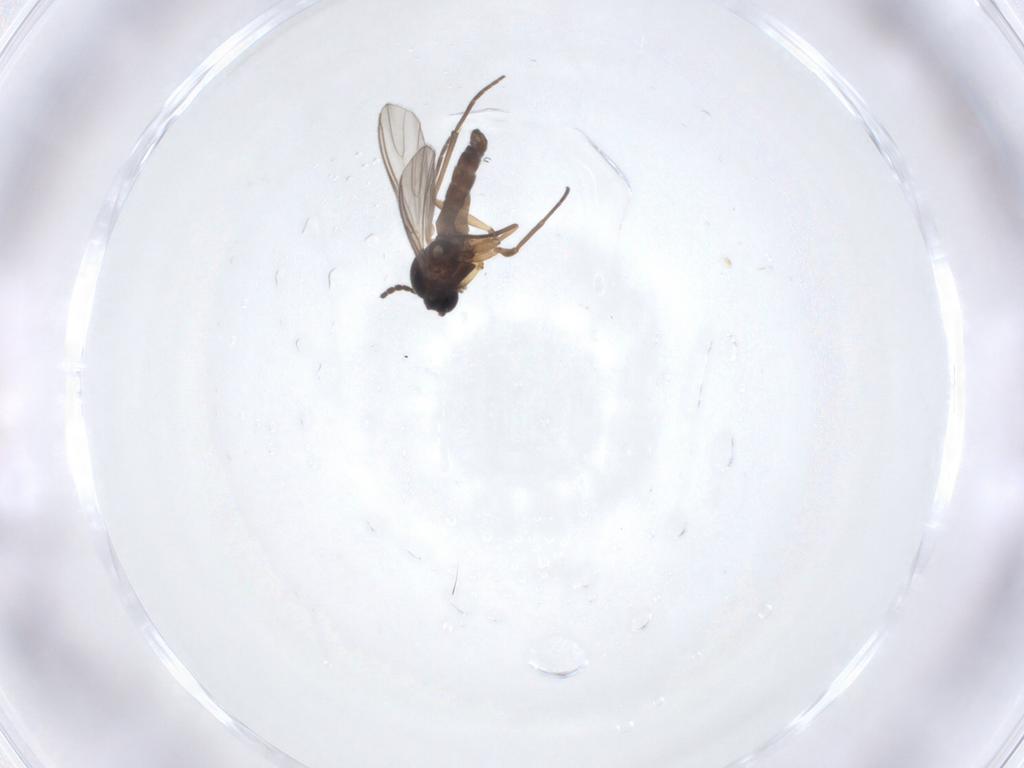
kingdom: Animalia
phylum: Arthropoda
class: Insecta
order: Diptera
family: Sciaridae
